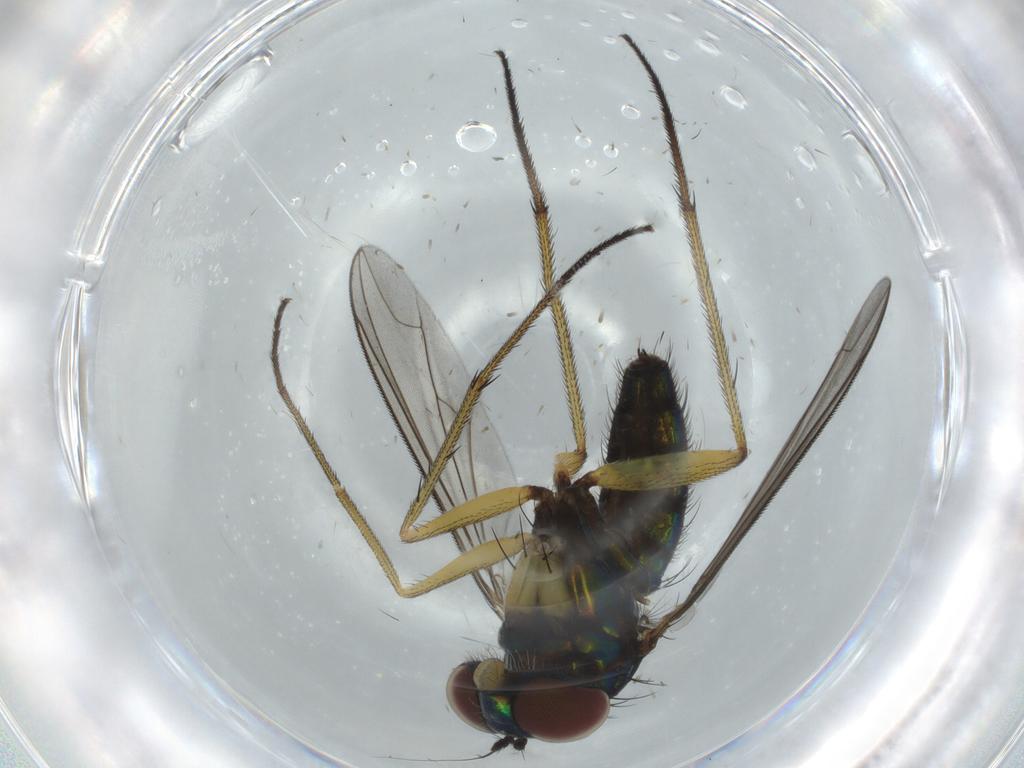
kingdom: Animalia
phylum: Arthropoda
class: Insecta
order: Diptera
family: Dolichopodidae
